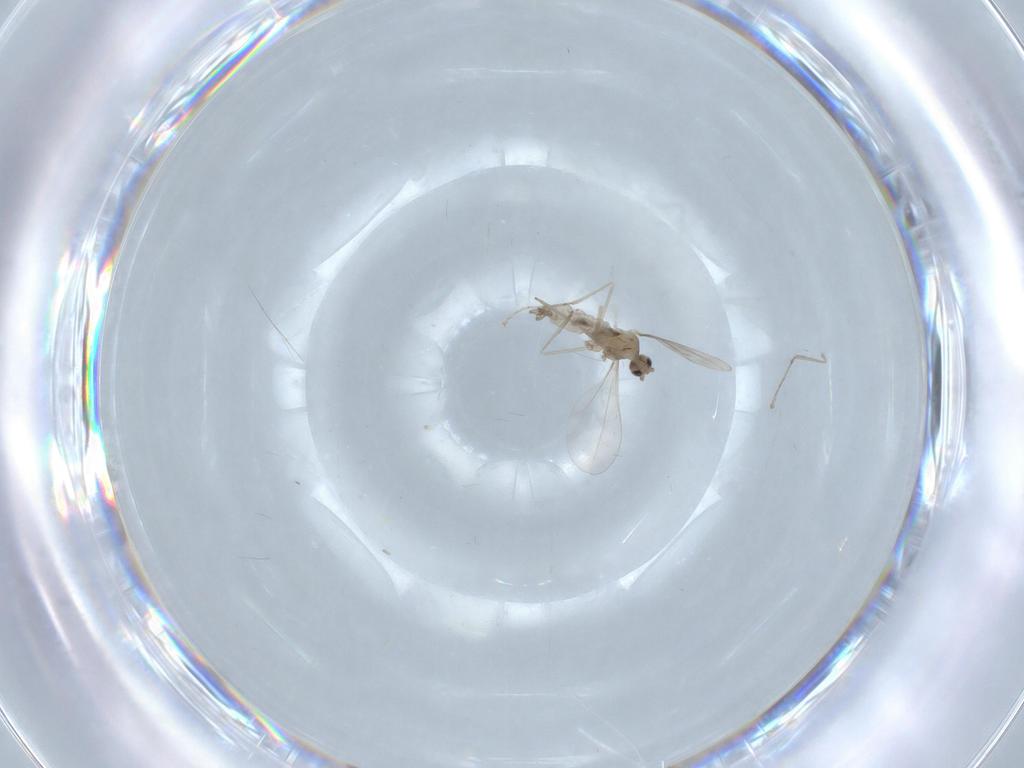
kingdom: Animalia
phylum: Arthropoda
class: Insecta
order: Diptera
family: Cecidomyiidae
